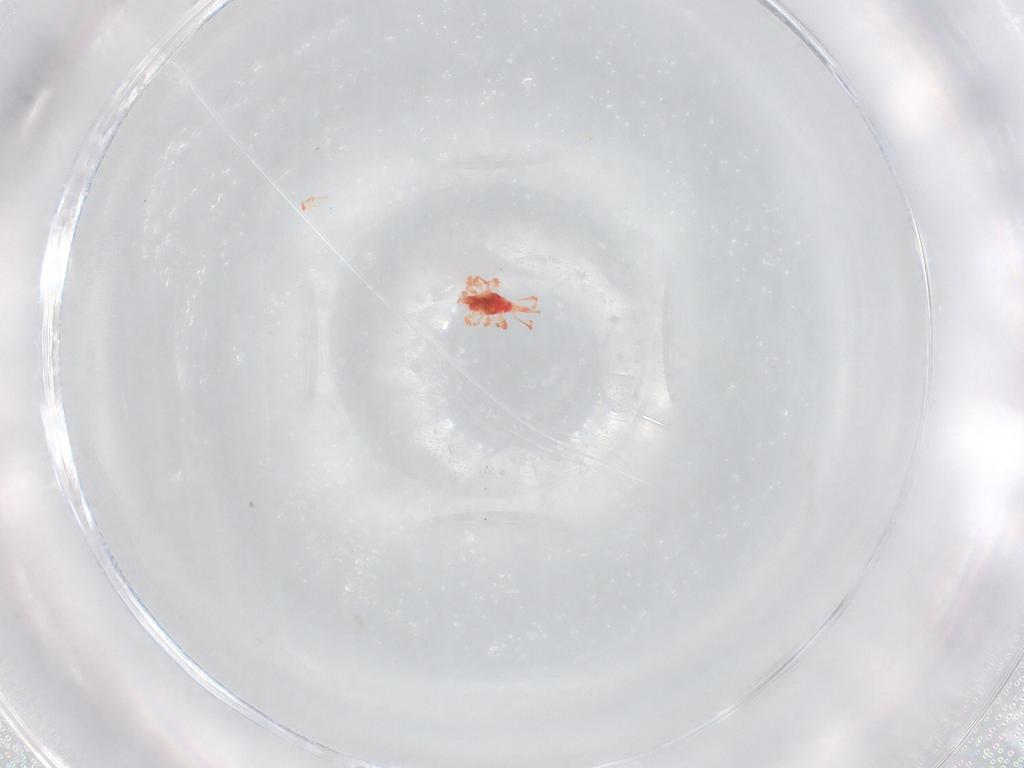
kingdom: Animalia
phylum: Arthropoda
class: Arachnida
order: Trombidiformes
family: Bdellidae
